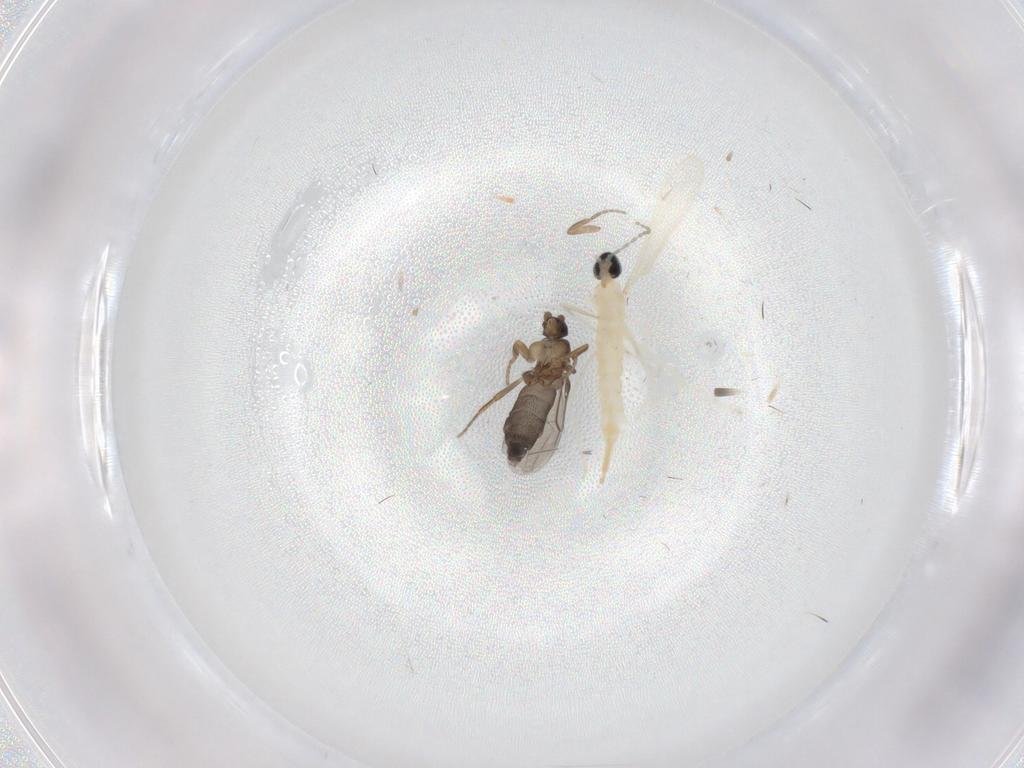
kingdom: Animalia
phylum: Arthropoda
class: Insecta
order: Diptera
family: Phoridae
